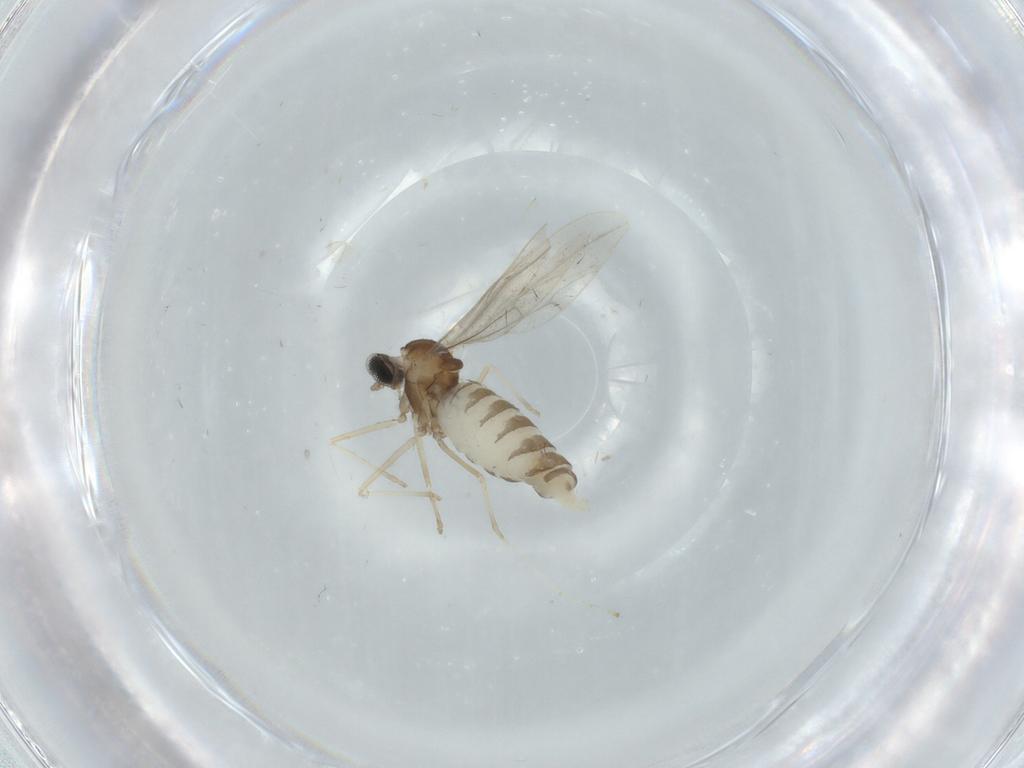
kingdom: Animalia
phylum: Arthropoda
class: Insecta
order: Diptera
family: Cecidomyiidae
